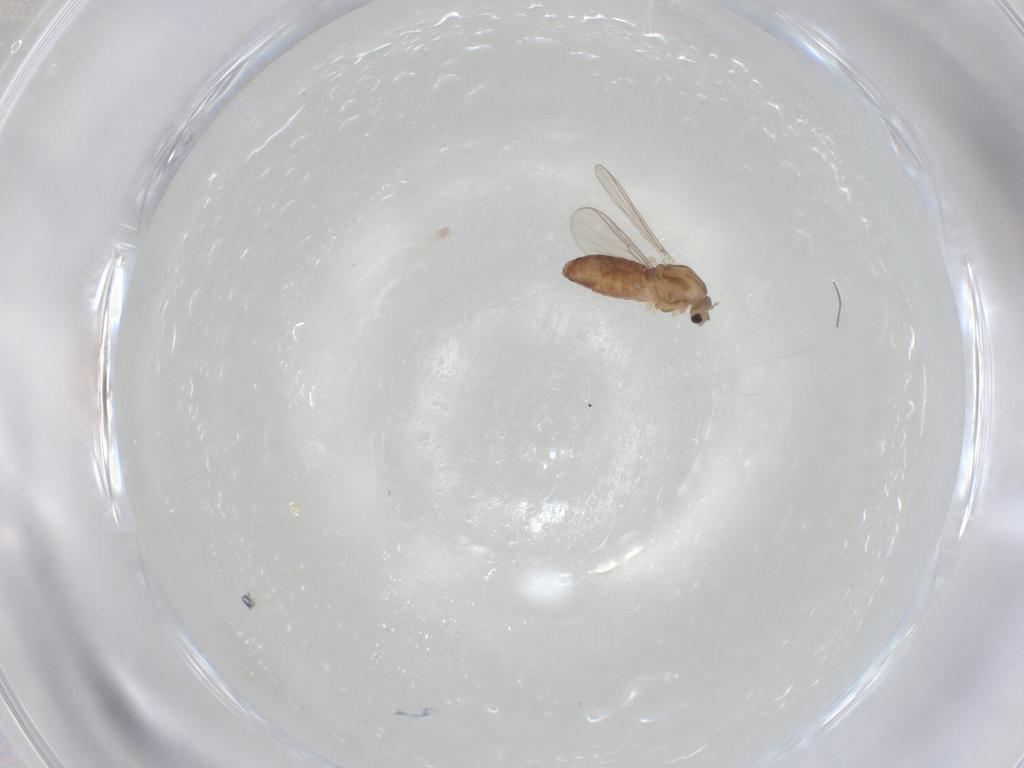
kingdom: Animalia
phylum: Arthropoda
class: Insecta
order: Diptera
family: Chironomidae
